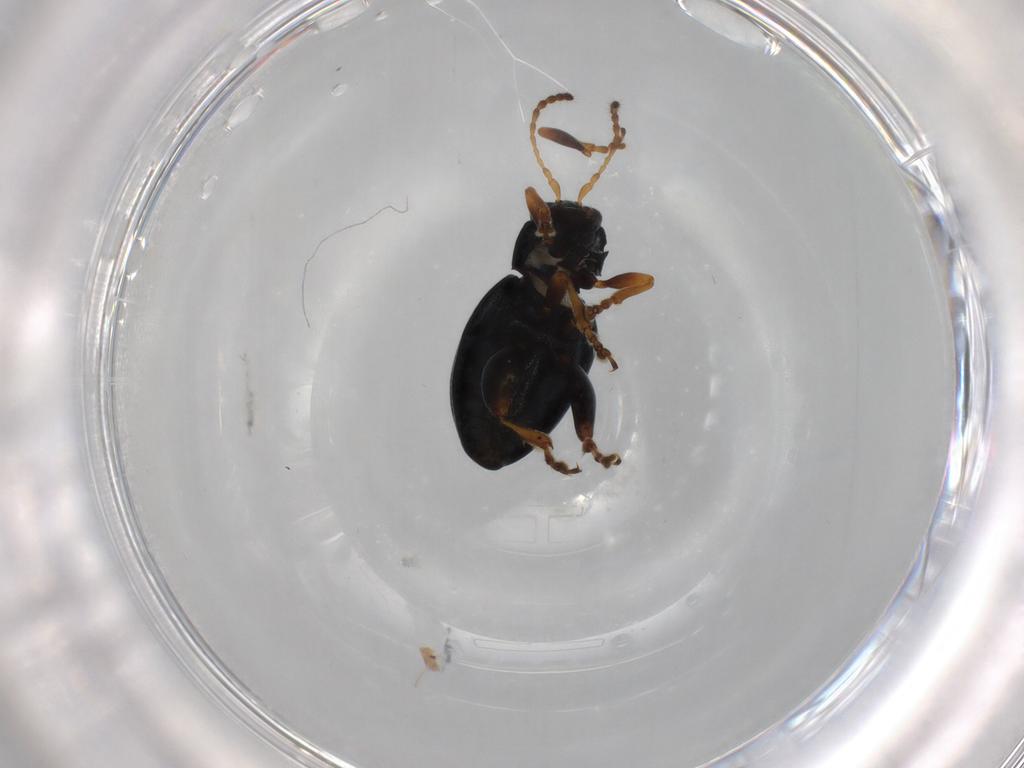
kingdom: Animalia
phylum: Arthropoda
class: Insecta
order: Coleoptera
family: Chrysomelidae
